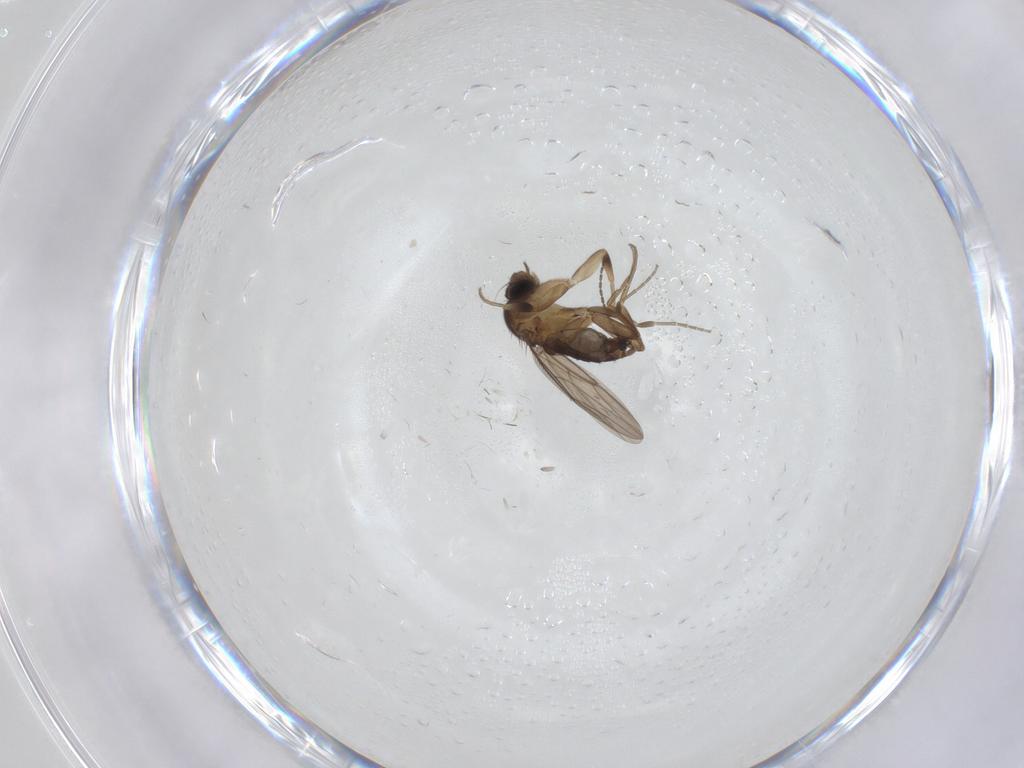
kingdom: Animalia
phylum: Arthropoda
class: Insecta
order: Diptera
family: Phoridae
